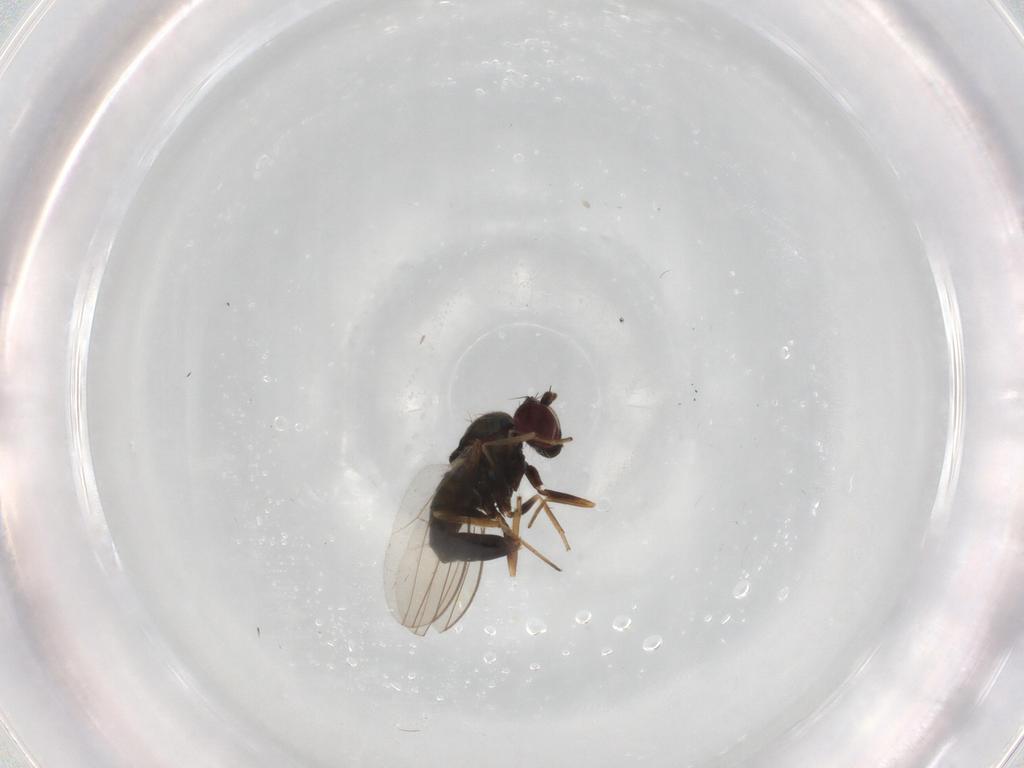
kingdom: Animalia
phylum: Arthropoda
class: Insecta
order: Diptera
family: Dolichopodidae
